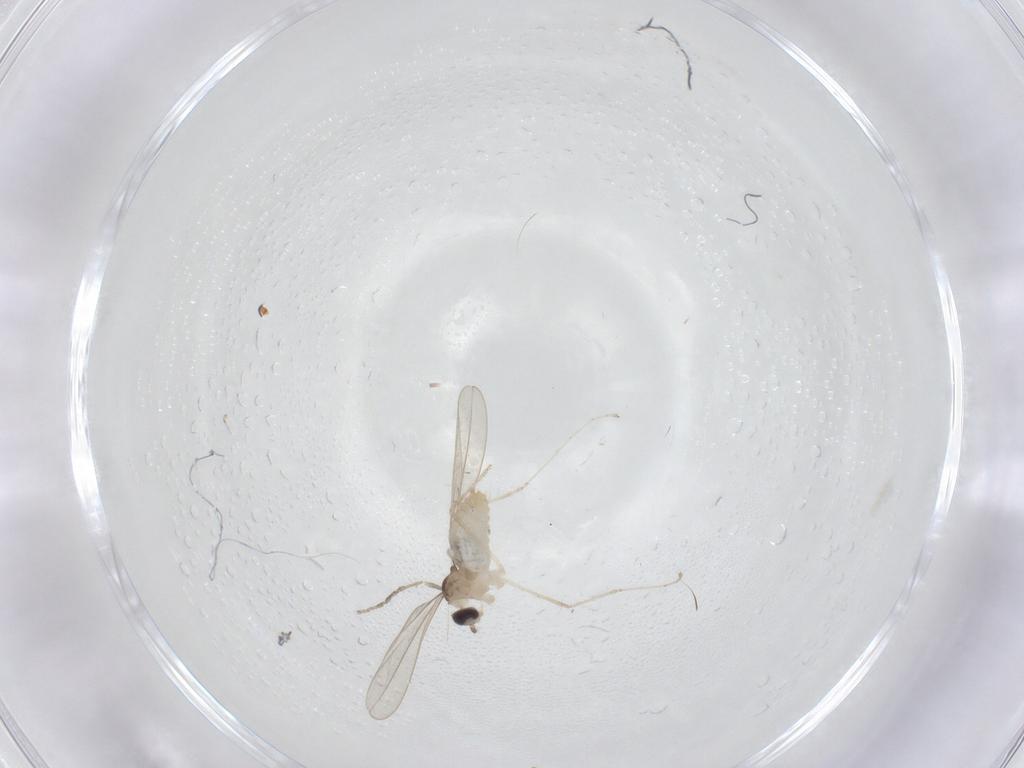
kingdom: Animalia
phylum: Arthropoda
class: Insecta
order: Diptera
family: Cecidomyiidae
